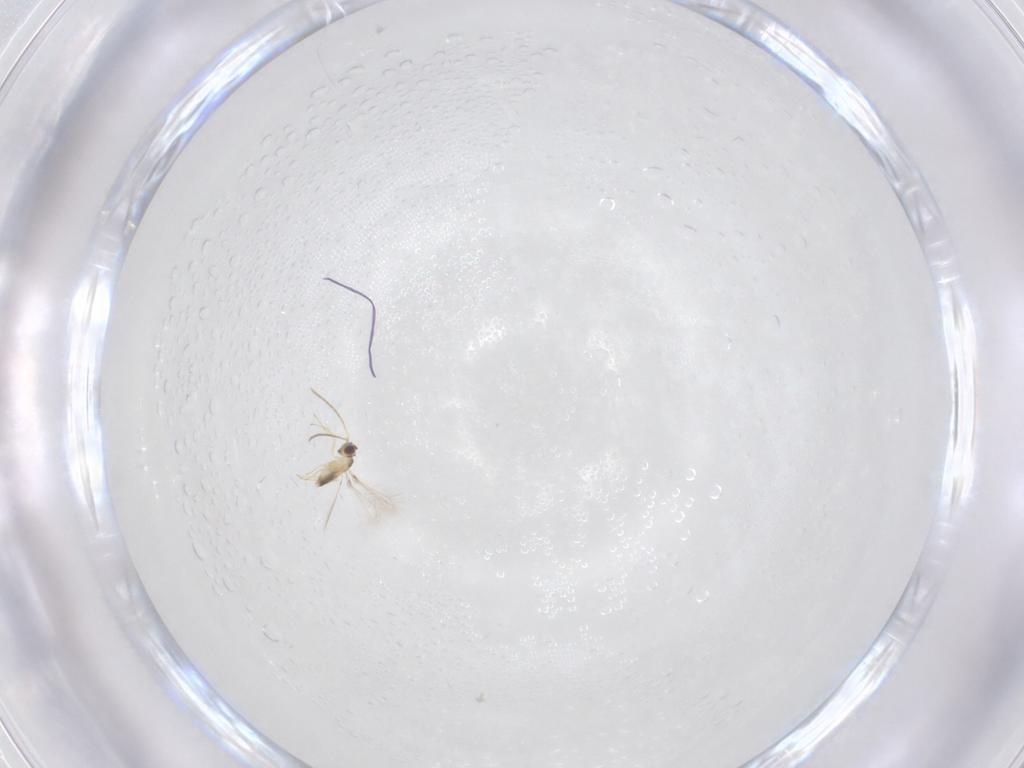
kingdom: Animalia
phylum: Arthropoda
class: Insecta
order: Hymenoptera
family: Mymaridae
